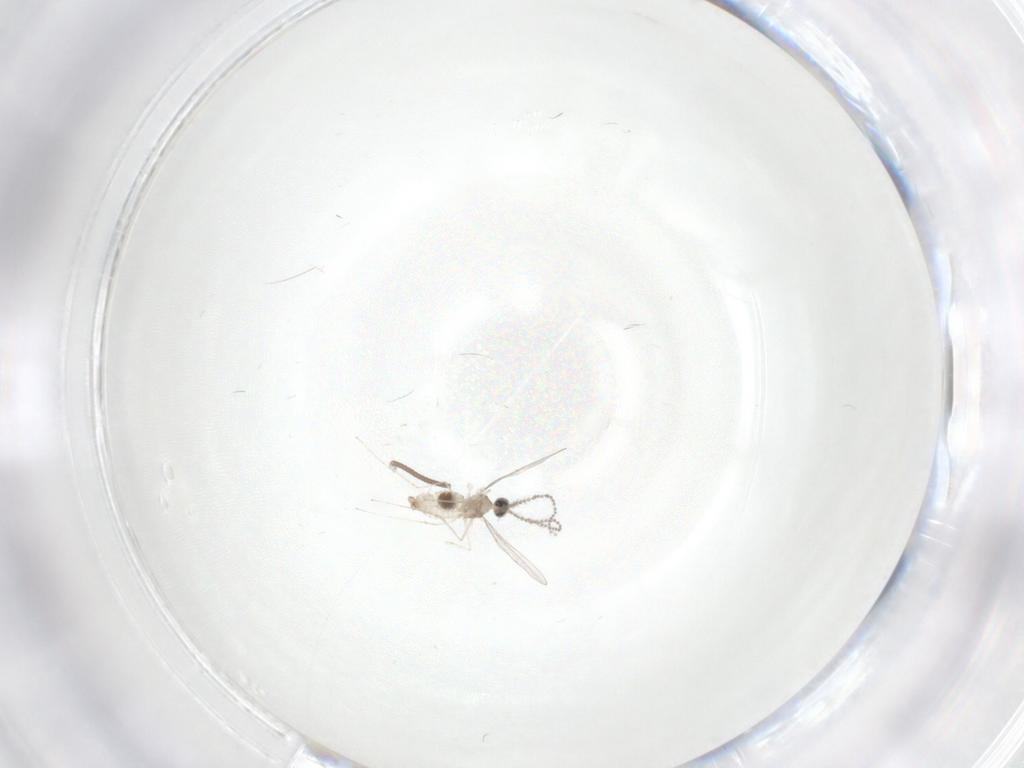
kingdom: Animalia
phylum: Arthropoda
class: Insecta
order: Diptera
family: Cecidomyiidae
